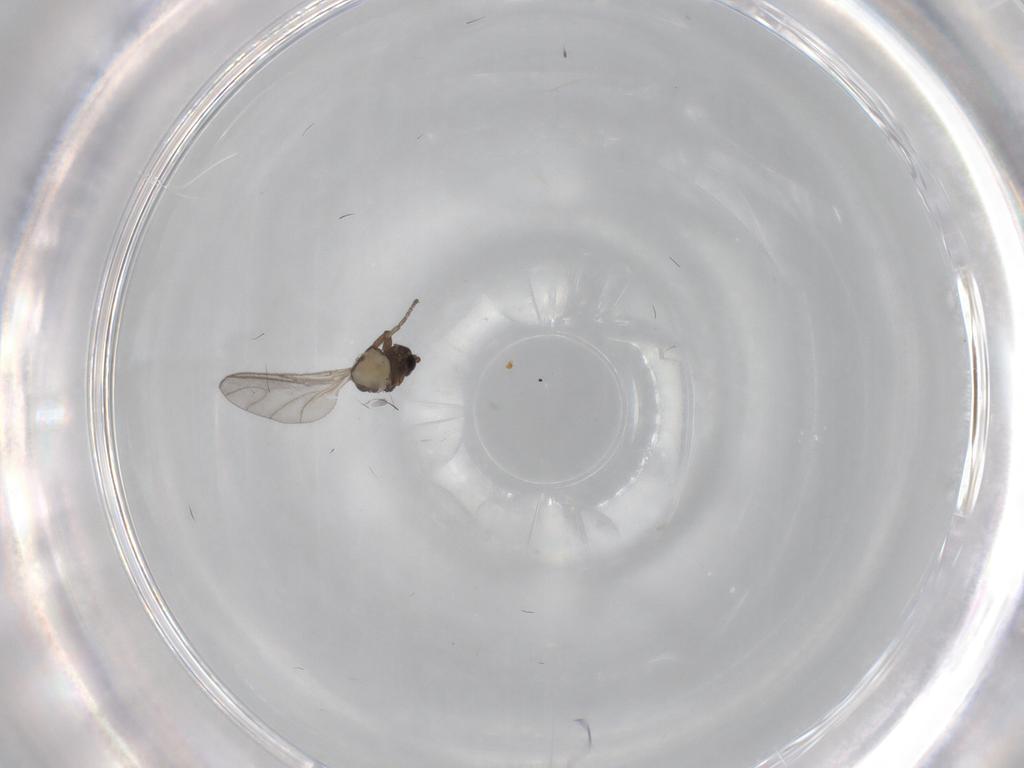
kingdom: Animalia
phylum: Arthropoda
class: Insecta
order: Diptera
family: Sciaridae
